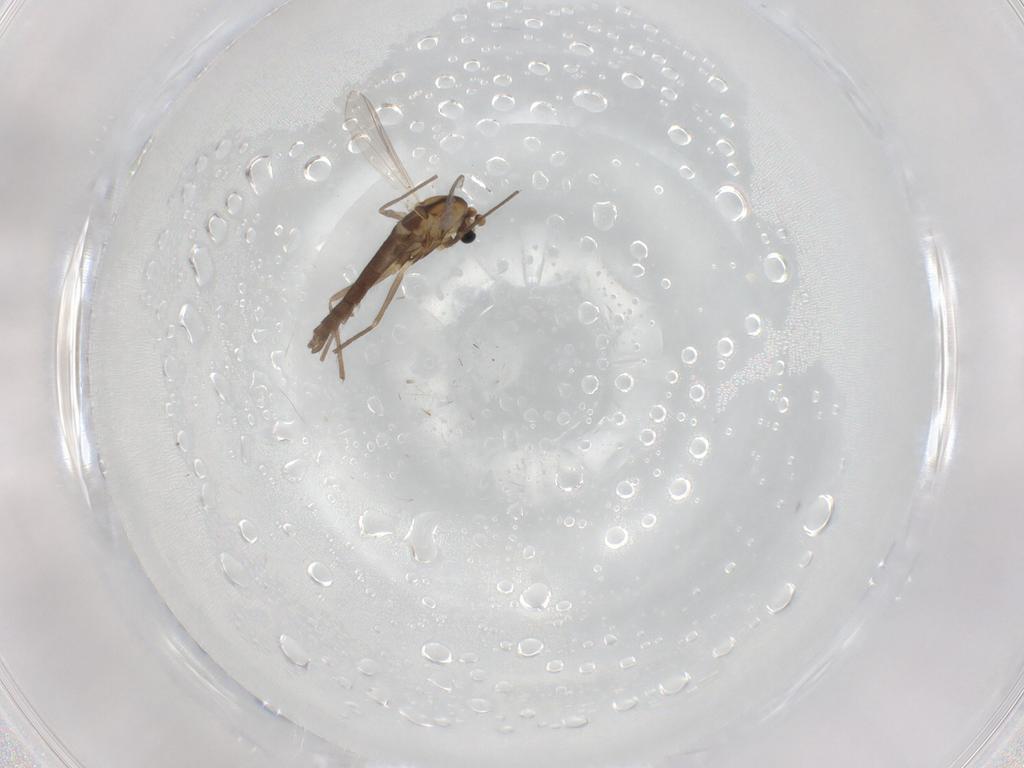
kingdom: Animalia
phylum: Arthropoda
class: Insecta
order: Diptera
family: Chironomidae
